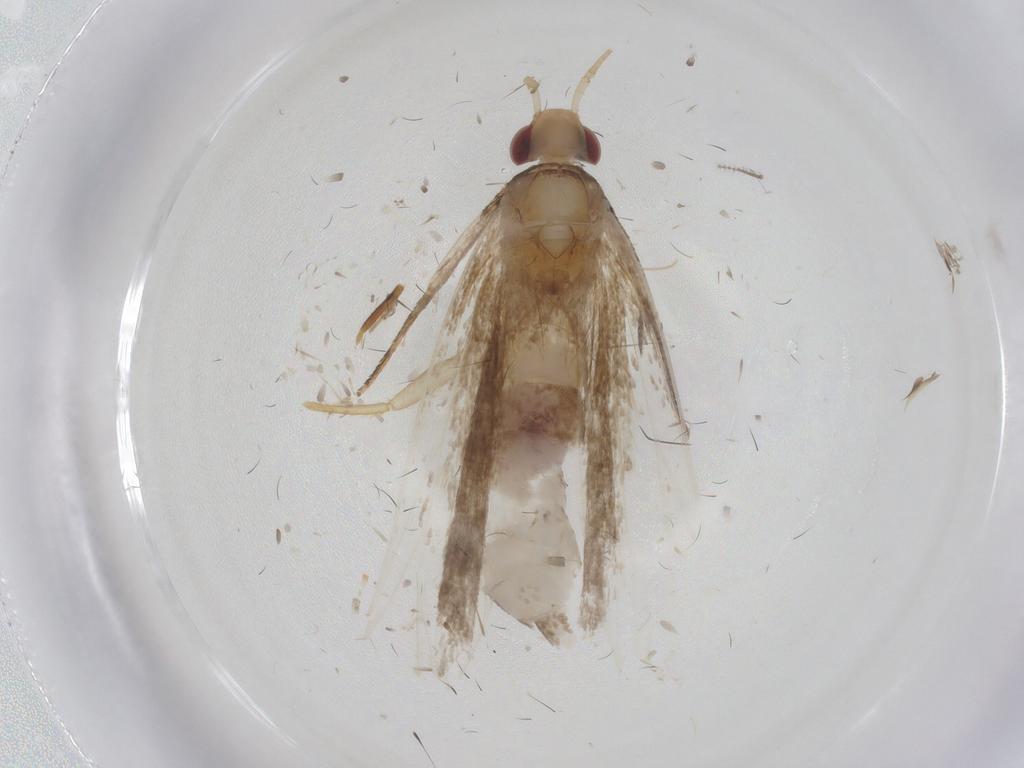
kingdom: Animalia
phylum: Arthropoda
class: Insecta
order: Lepidoptera
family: Gelechiidae
